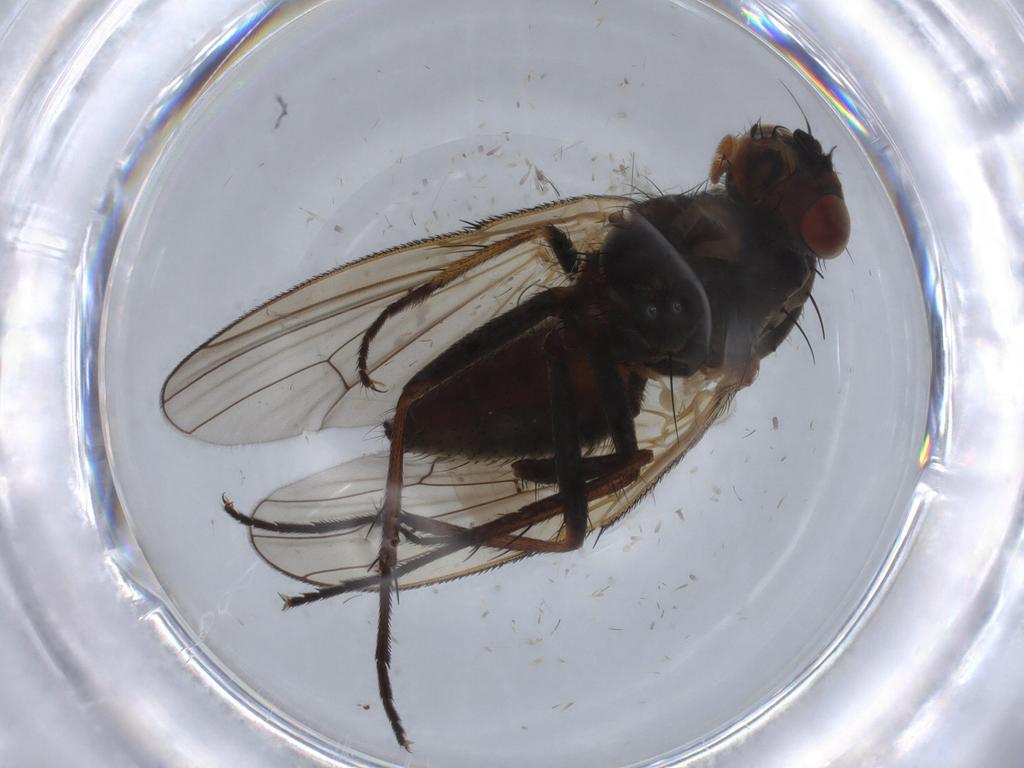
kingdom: Animalia
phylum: Arthropoda
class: Insecta
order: Diptera
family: Anthomyiidae
